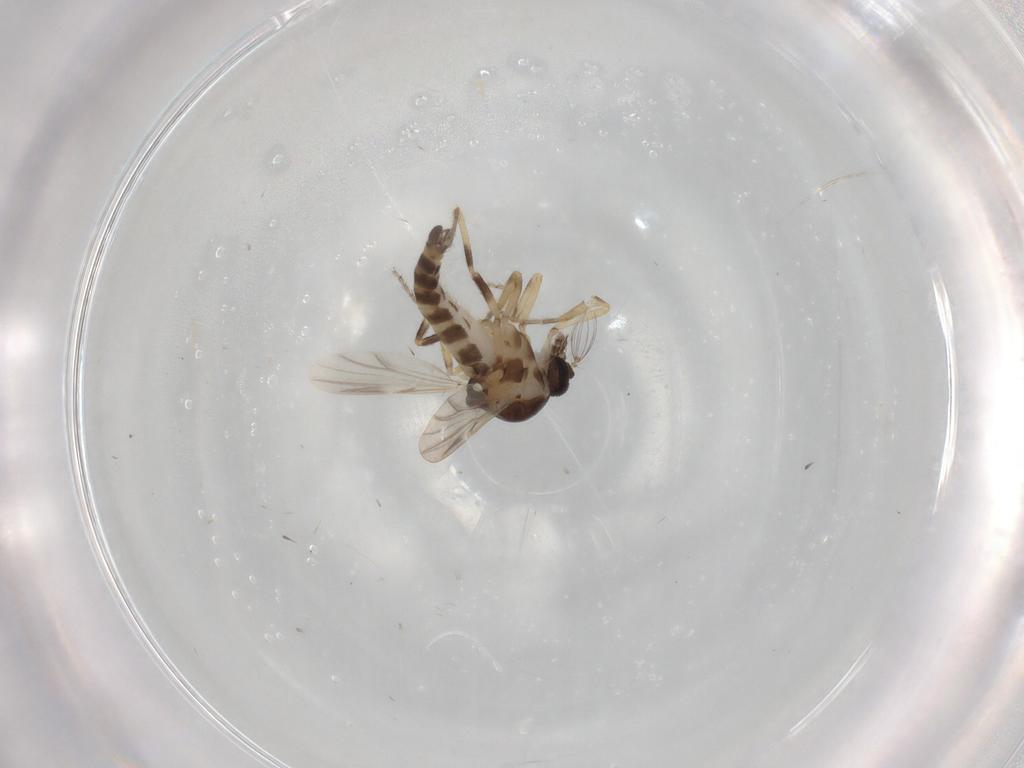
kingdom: Animalia
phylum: Arthropoda
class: Insecta
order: Diptera
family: Ceratopogonidae
